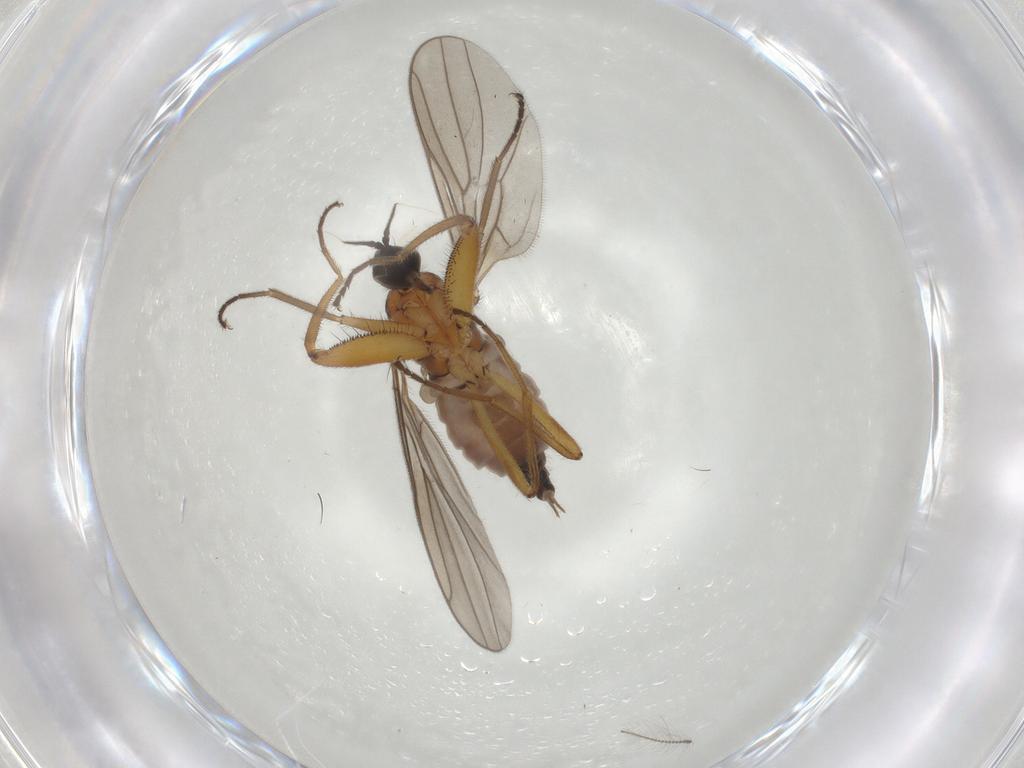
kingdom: Animalia
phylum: Arthropoda
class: Insecta
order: Diptera
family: Hybotidae
